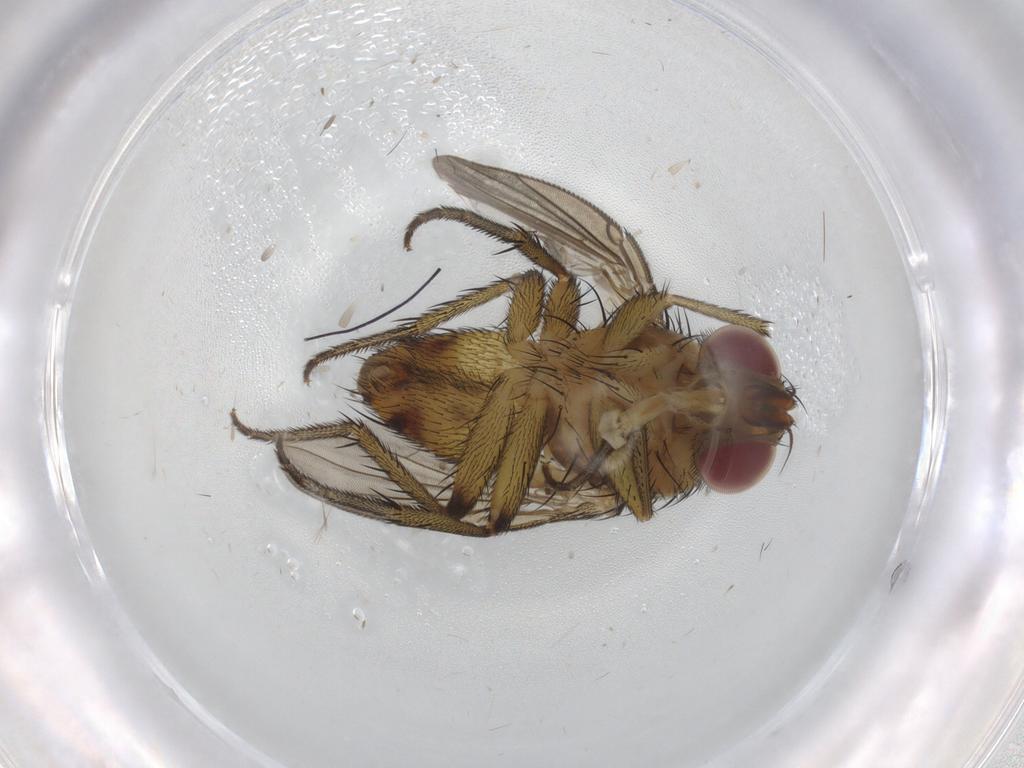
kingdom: Animalia
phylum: Arthropoda
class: Insecta
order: Diptera
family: Tachinidae
